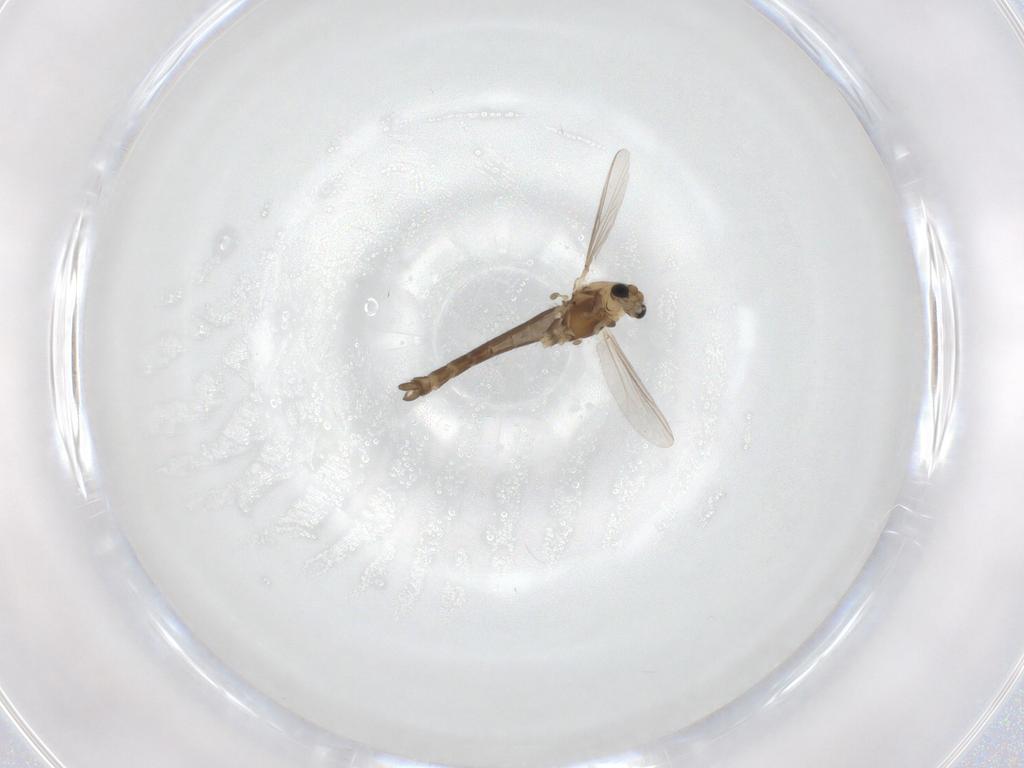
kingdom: Animalia
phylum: Arthropoda
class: Insecta
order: Diptera
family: Chironomidae
